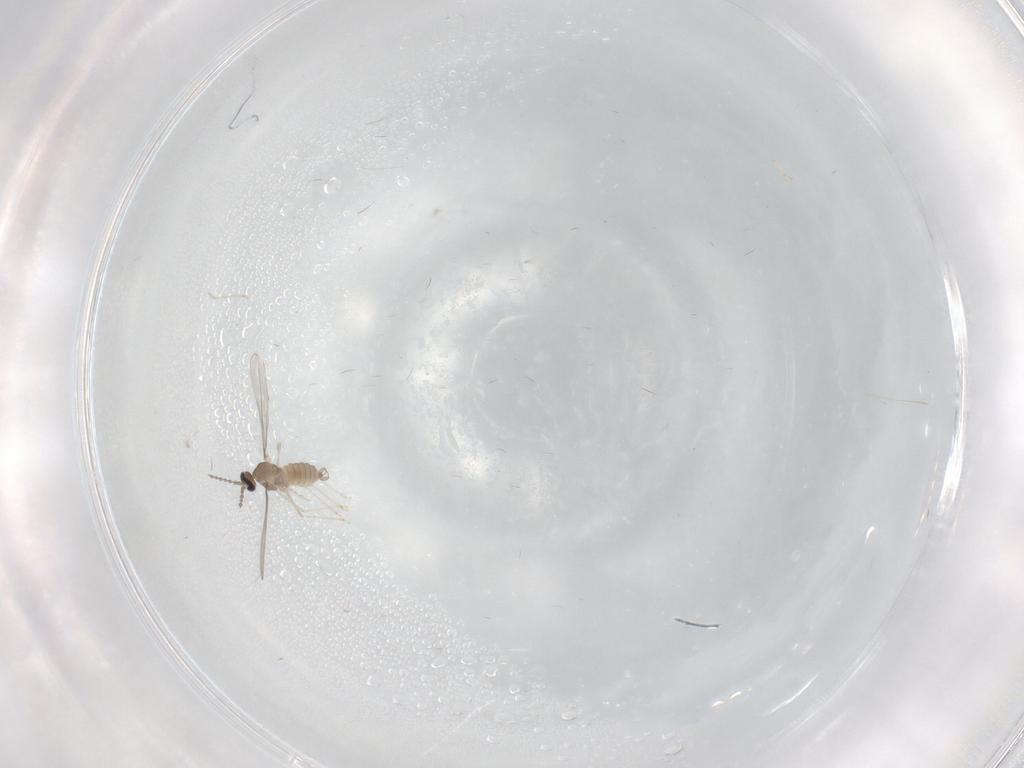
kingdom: Animalia
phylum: Arthropoda
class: Insecta
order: Diptera
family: Cecidomyiidae
